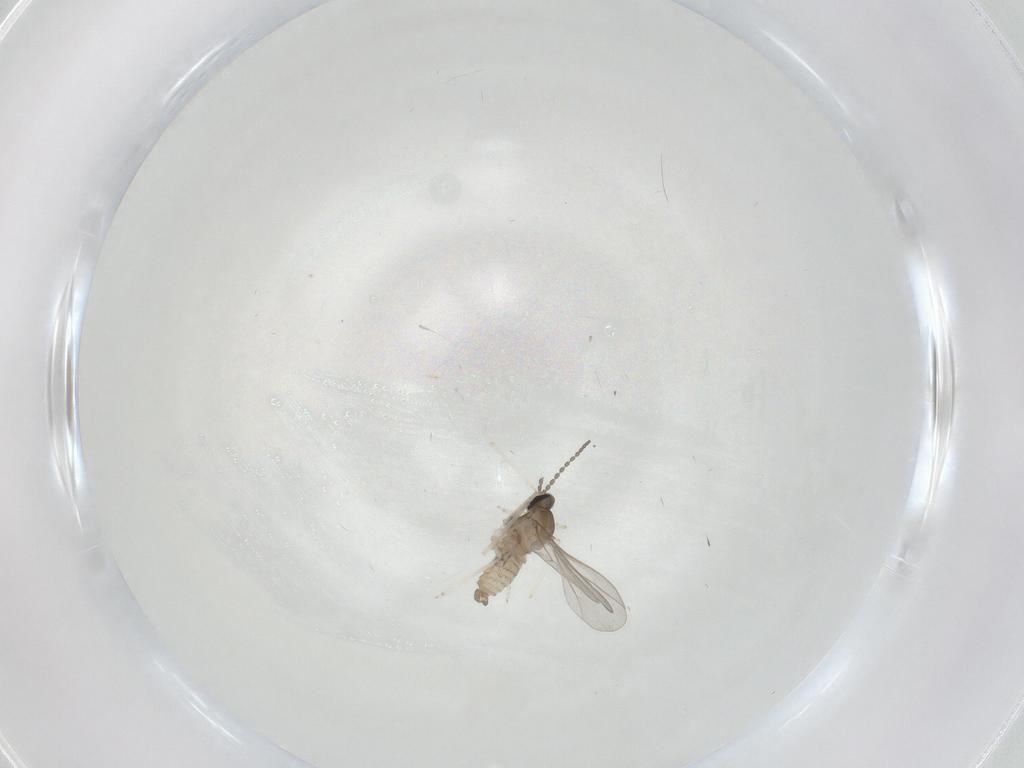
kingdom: Animalia
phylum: Arthropoda
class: Insecta
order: Diptera
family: Cecidomyiidae
